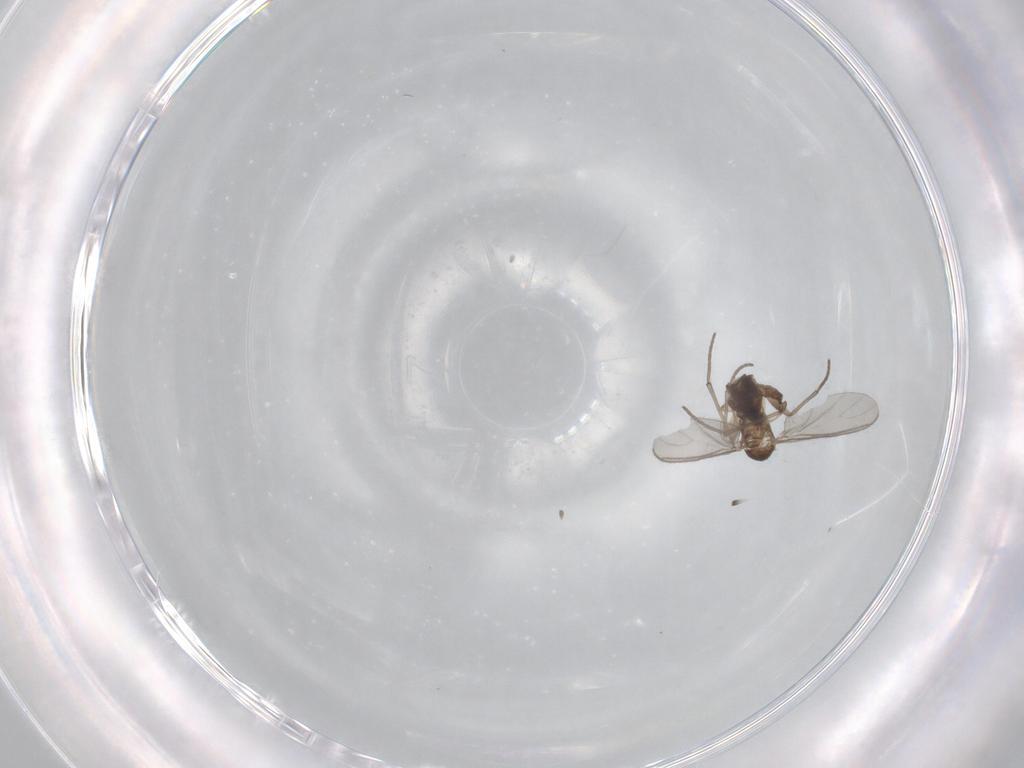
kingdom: Animalia
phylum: Arthropoda
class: Insecta
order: Diptera
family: Sciaridae
